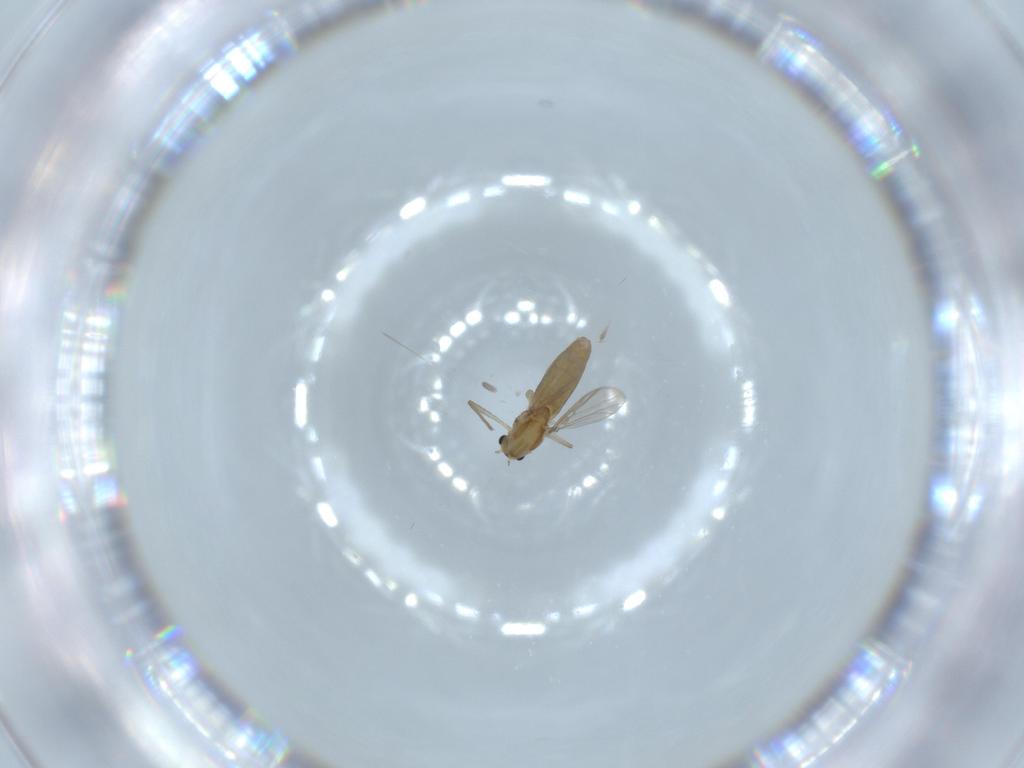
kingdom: Animalia
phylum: Arthropoda
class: Insecta
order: Diptera
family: Chironomidae
